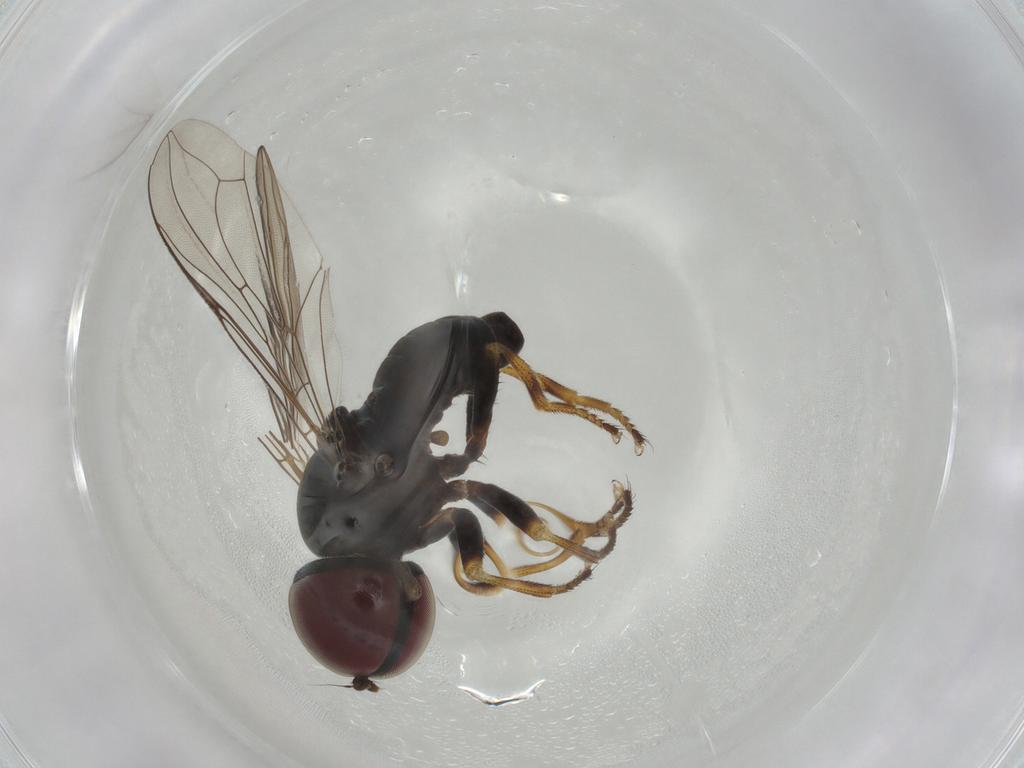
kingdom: Animalia
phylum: Arthropoda
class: Insecta
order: Diptera
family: Pipunculidae
